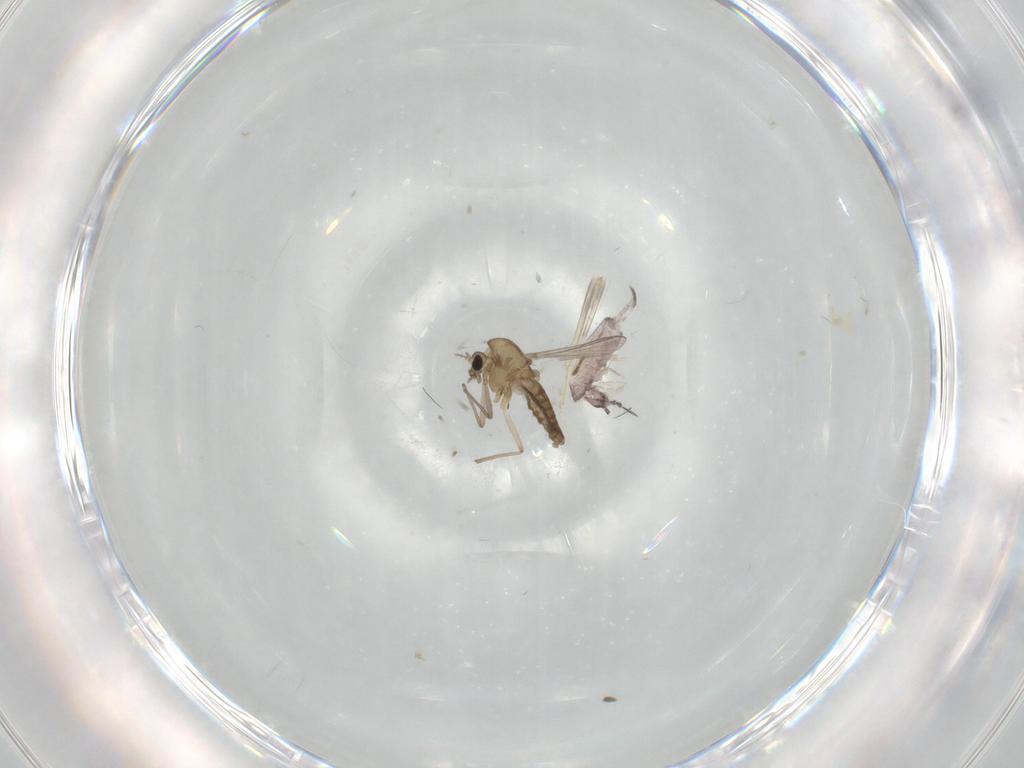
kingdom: Animalia
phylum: Arthropoda
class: Insecta
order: Diptera
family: Chironomidae
